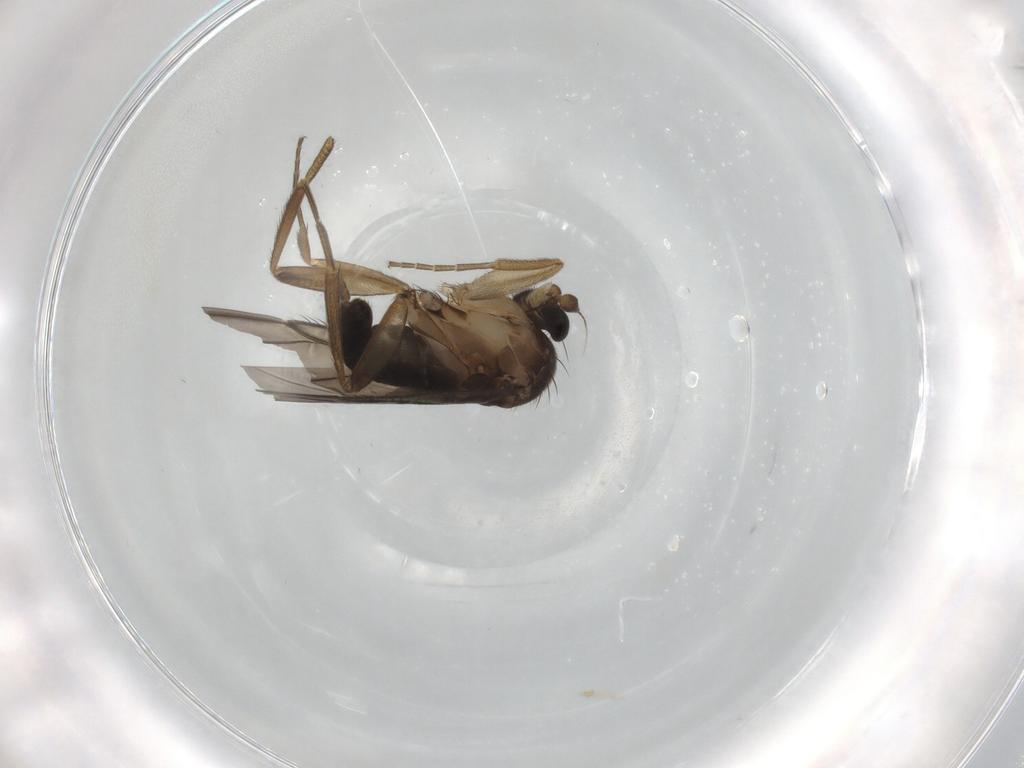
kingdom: Animalia
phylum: Arthropoda
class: Insecta
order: Diptera
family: Phoridae
